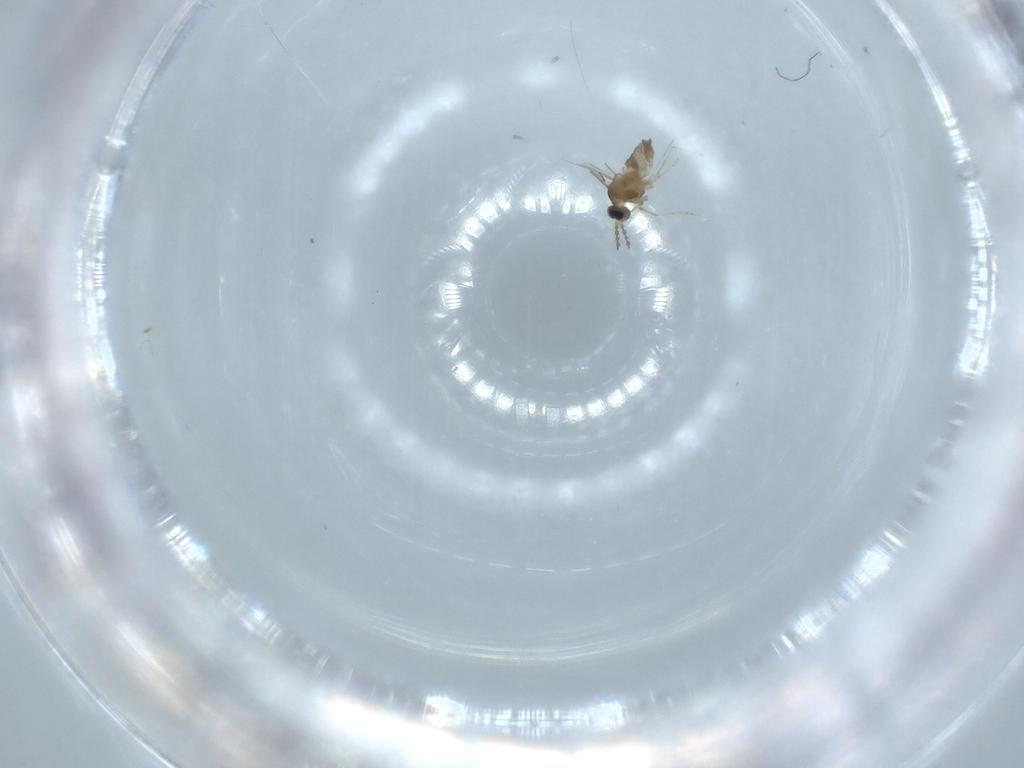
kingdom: Animalia
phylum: Arthropoda
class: Insecta
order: Diptera
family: Cecidomyiidae
